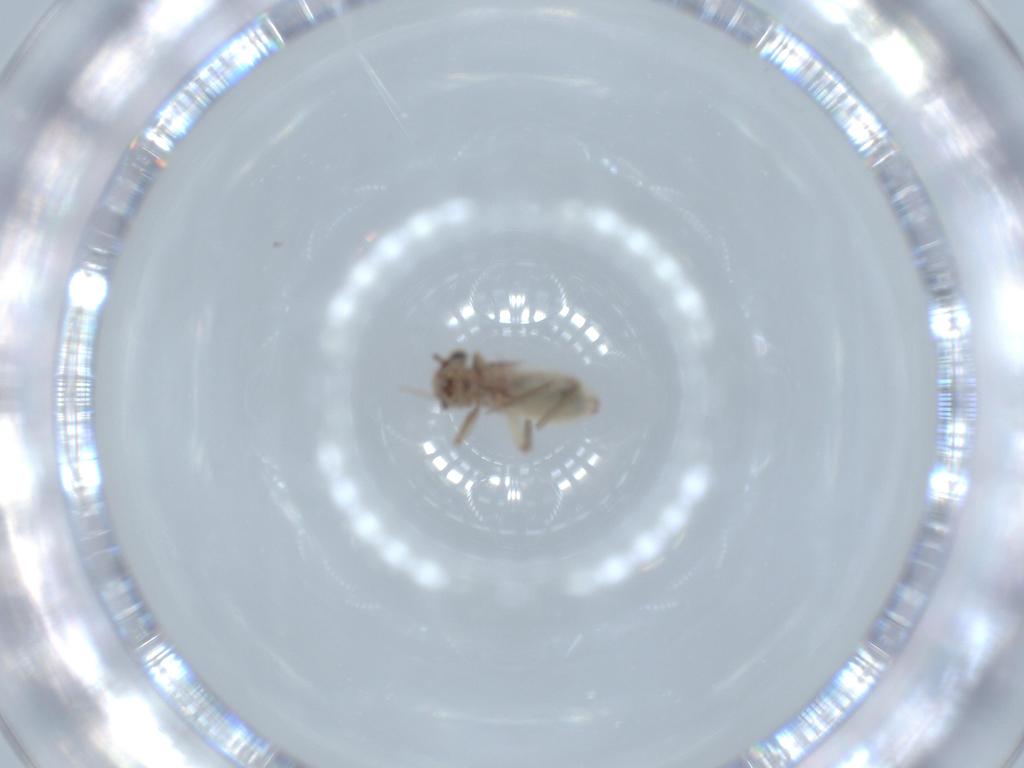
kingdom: Animalia
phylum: Arthropoda
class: Insecta
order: Psocodea
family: Lepidopsocidae
